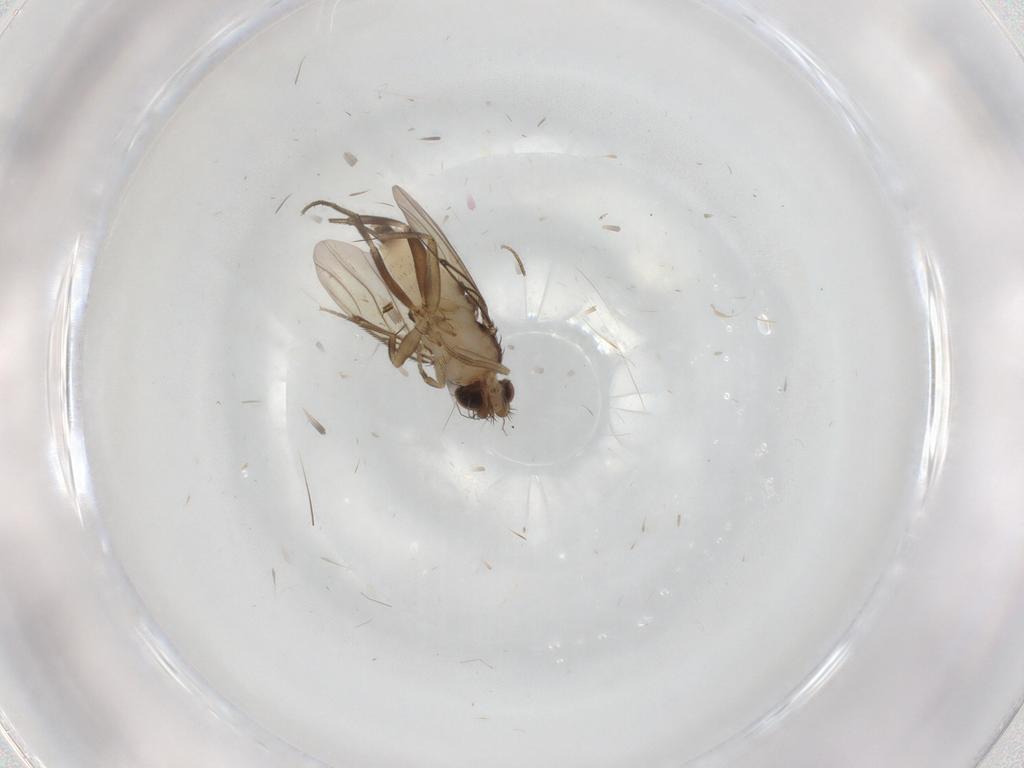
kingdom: Animalia
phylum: Arthropoda
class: Insecta
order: Diptera
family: Phoridae
